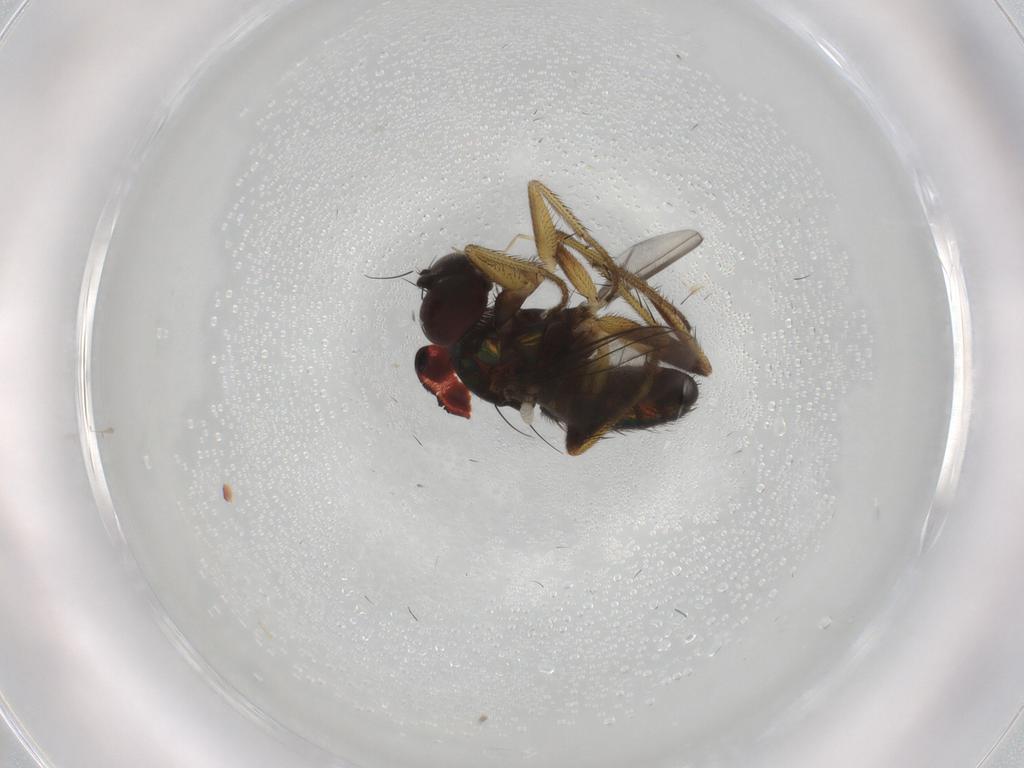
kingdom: Animalia
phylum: Arthropoda
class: Insecta
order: Diptera
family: Dolichopodidae
